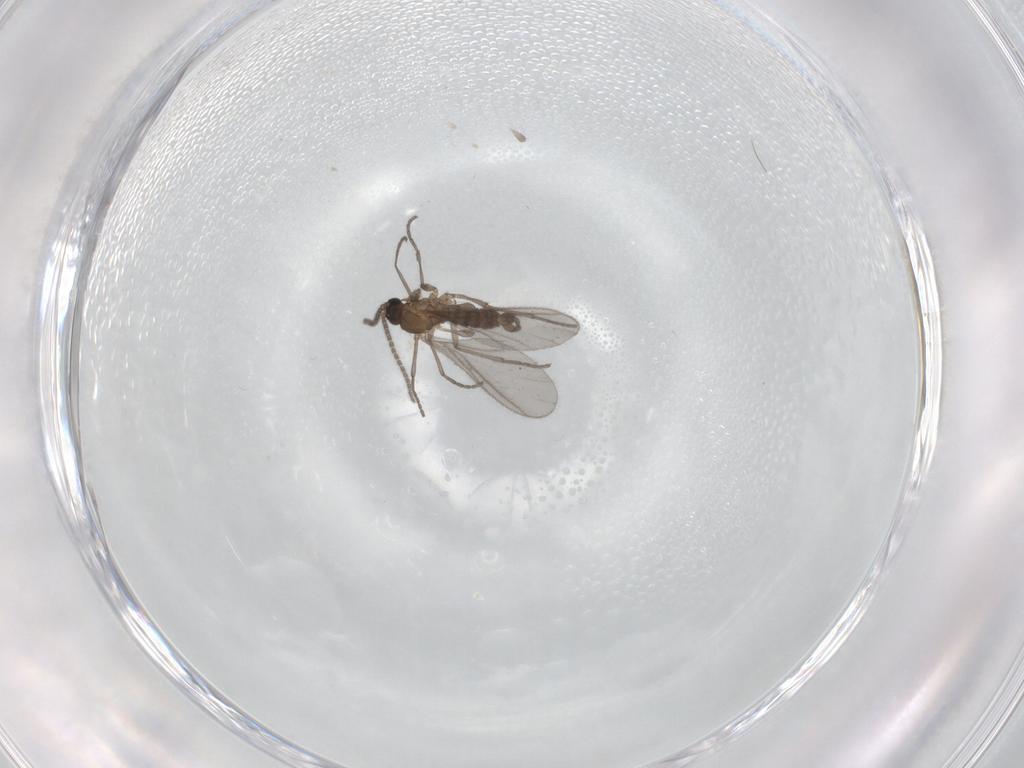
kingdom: Animalia
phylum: Arthropoda
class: Insecta
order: Diptera
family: Sciaridae
